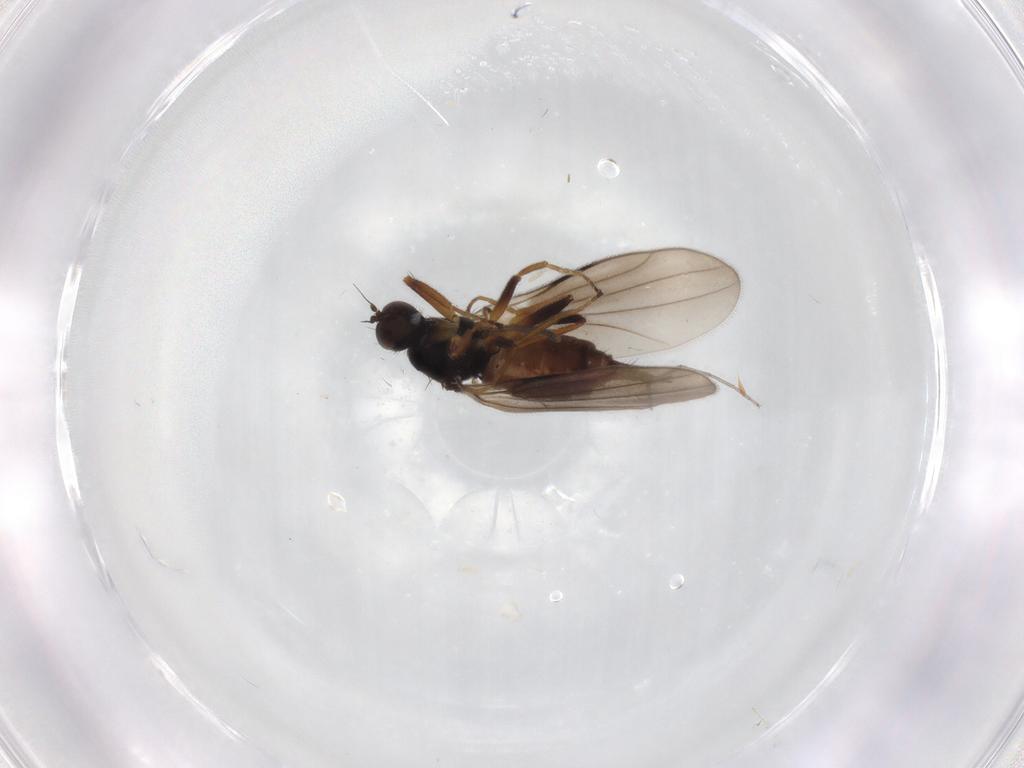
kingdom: Animalia
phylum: Arthropoda
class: Insecta
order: Diptera
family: Hybotidae
